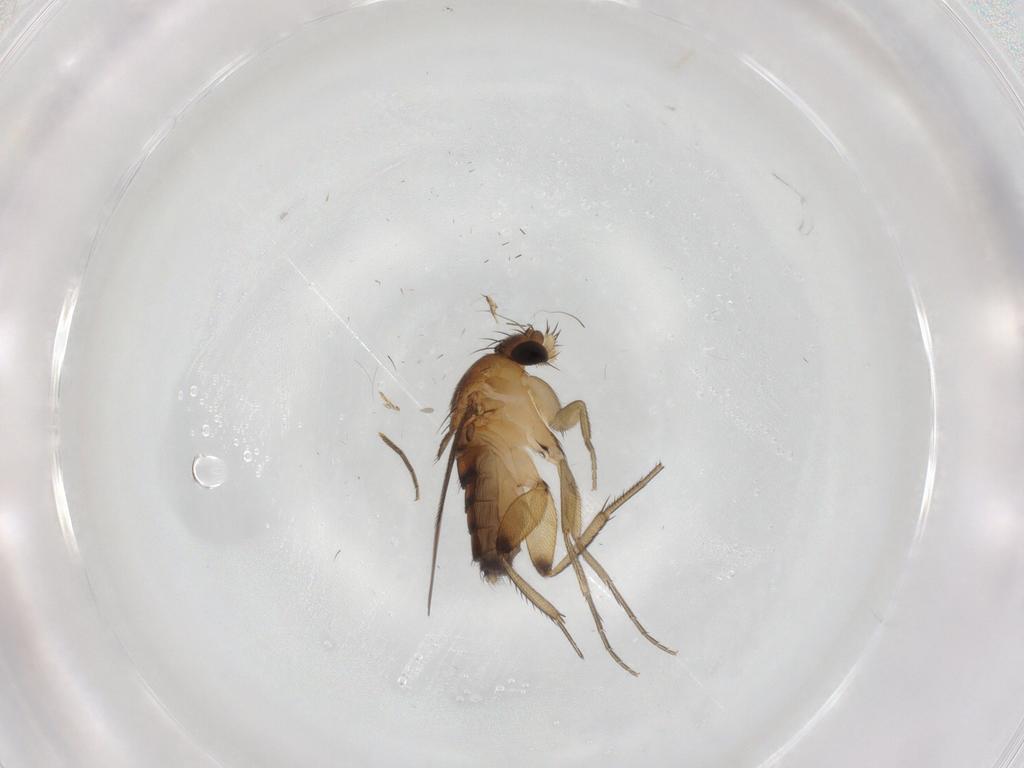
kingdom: Animalia
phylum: Arthropoda
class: Insecta
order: Diptera
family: Phoridae
